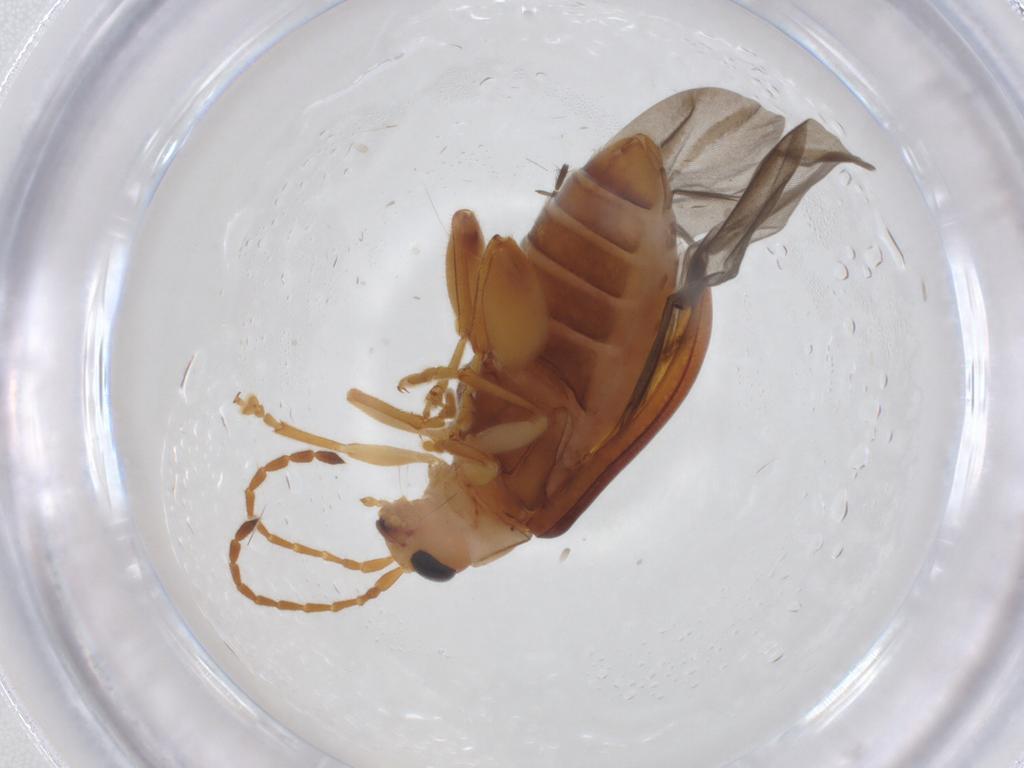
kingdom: Animalia
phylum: Arthropoda
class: Insecta
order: Coleoptera
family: Chrysomelidae
